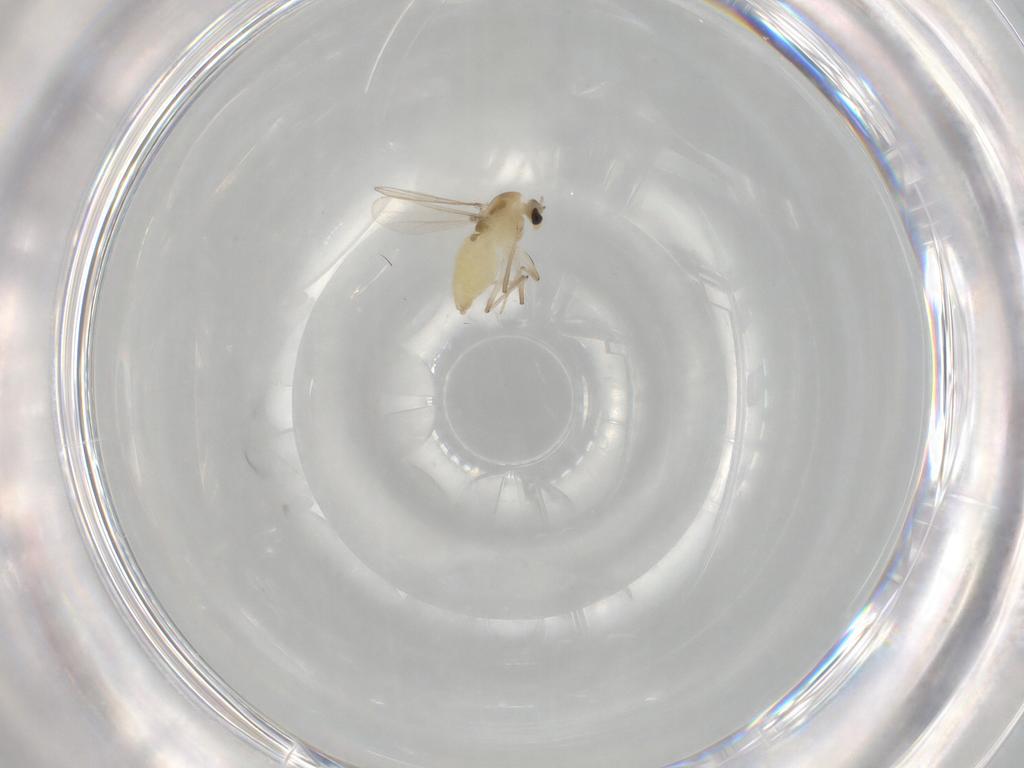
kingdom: Animalia
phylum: Arthropoda
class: Insecta
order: Diptera
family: Chironomidae
